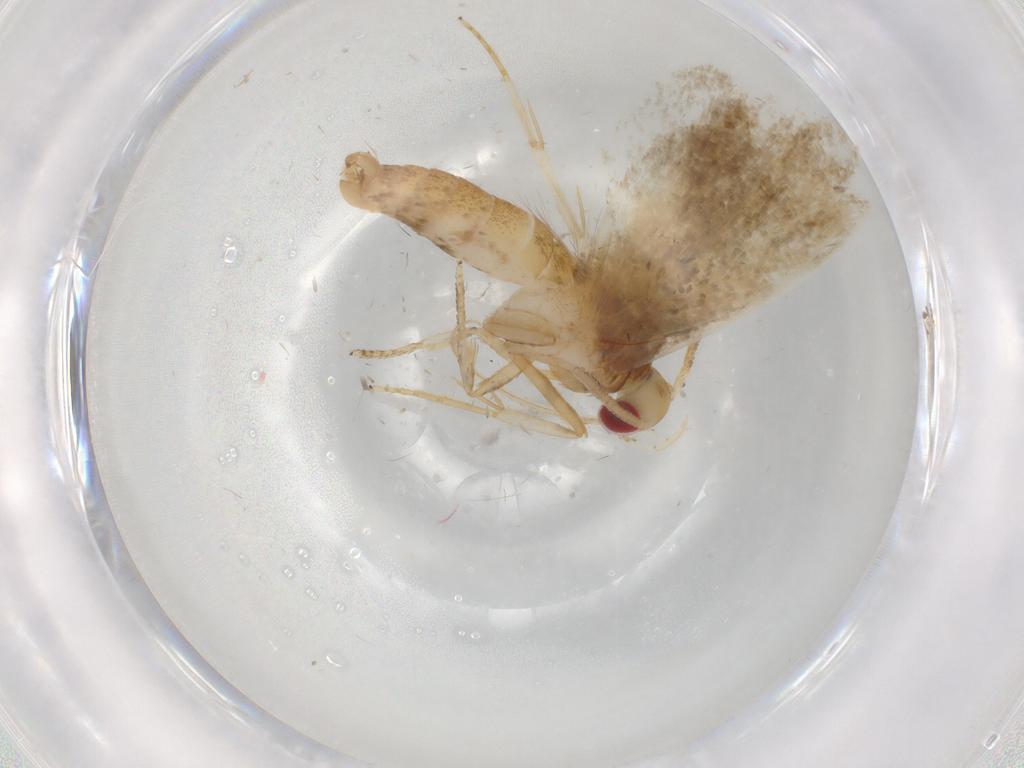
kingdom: Animalia
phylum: Arthropoda
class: Insecta
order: Lepidoptera
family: Oecophoridae
